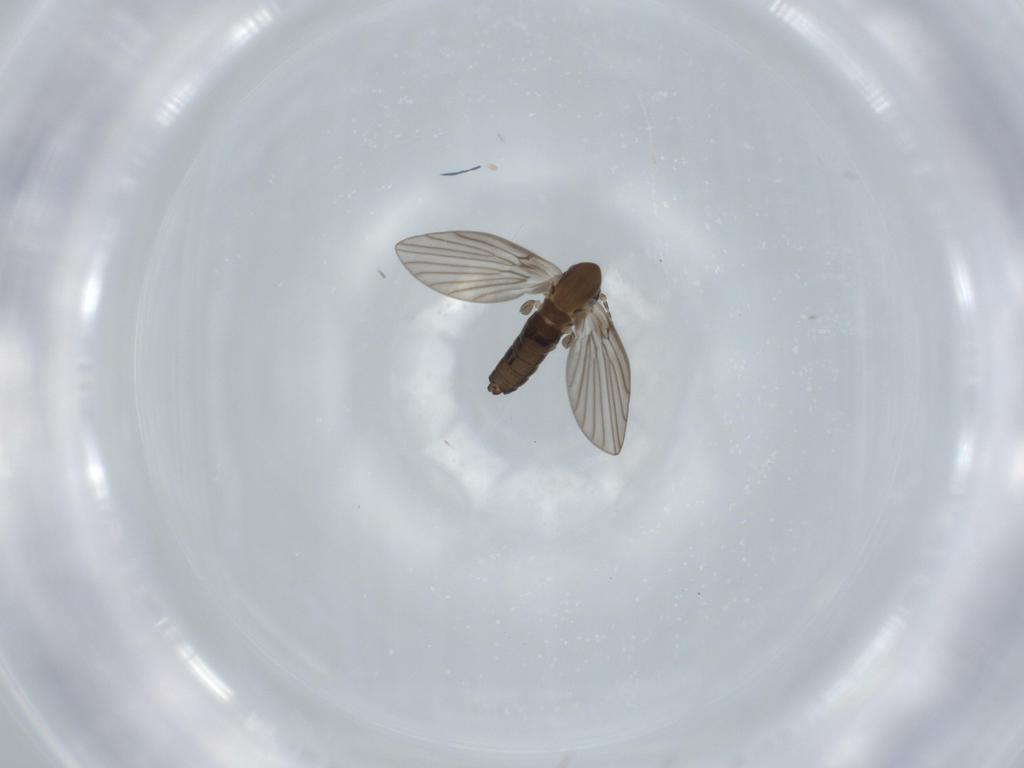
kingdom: Animalia
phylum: Arthropoda
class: Insecta
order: Diptera
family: Psychodidae
